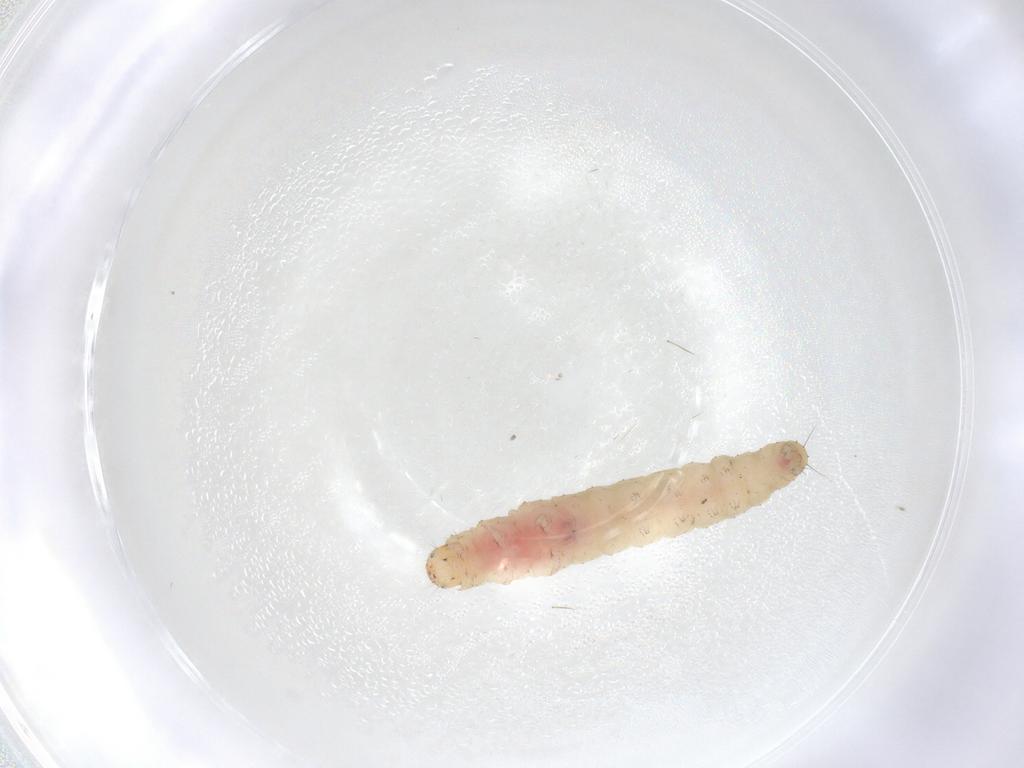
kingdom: Animalia
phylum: Arthropoda
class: Insecta
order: Lepidoptera
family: Gelechiidae
